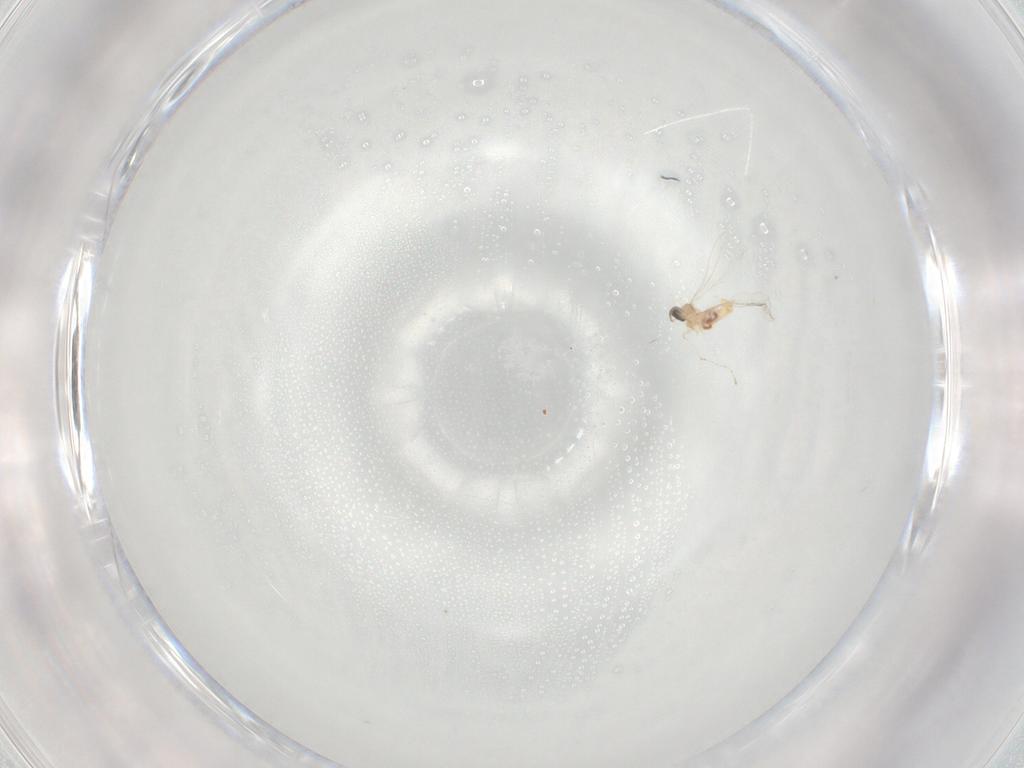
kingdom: Animalia
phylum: Arthropoda
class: Insecta
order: Diptera
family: Cecidomyiidae
